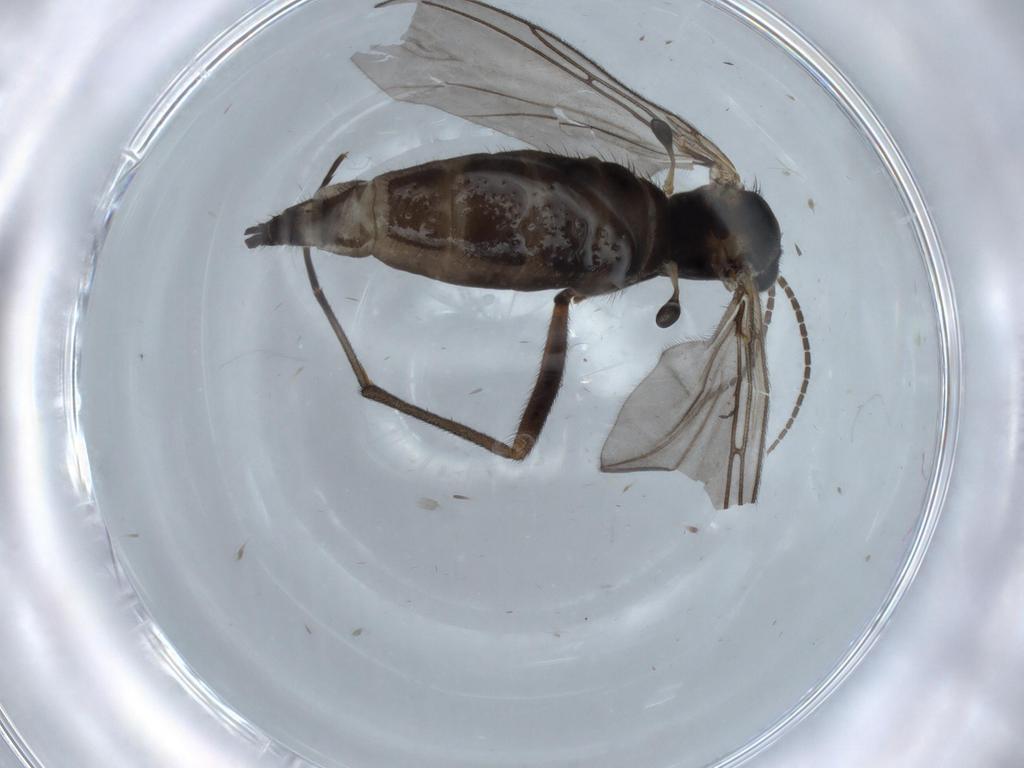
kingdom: Animalia
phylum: Arthropoda
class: Insecta
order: Diptera
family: Sciaridae
